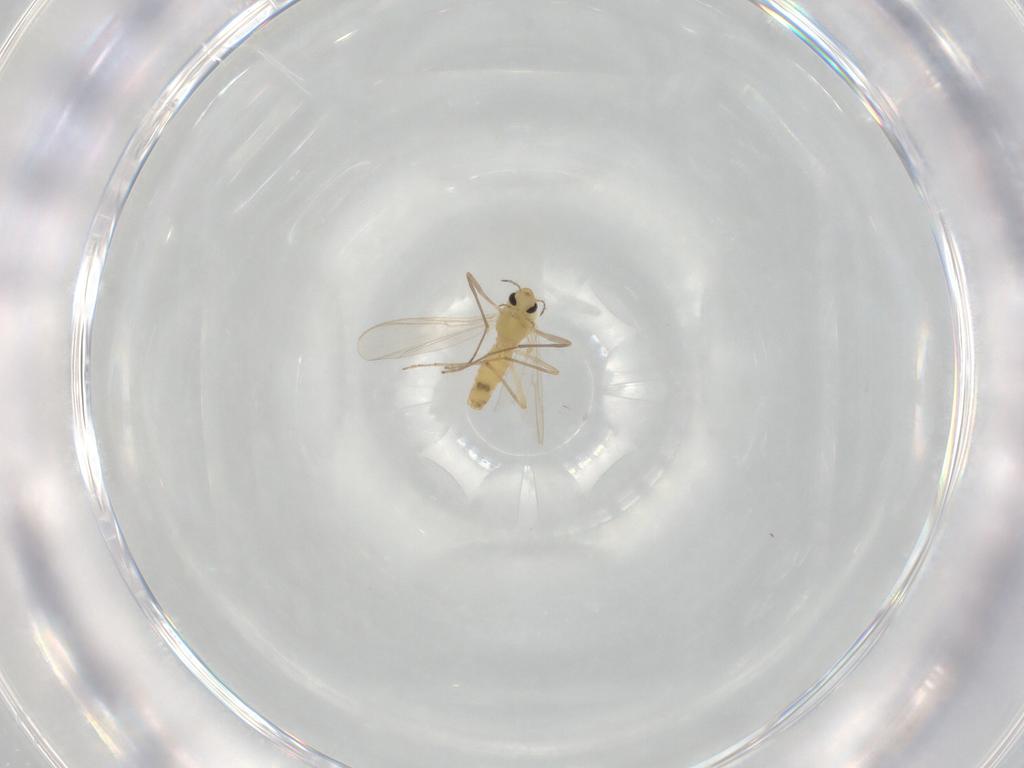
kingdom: Animalia
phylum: Arthropoda
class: Insecta
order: Diptera
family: Chironomidae
